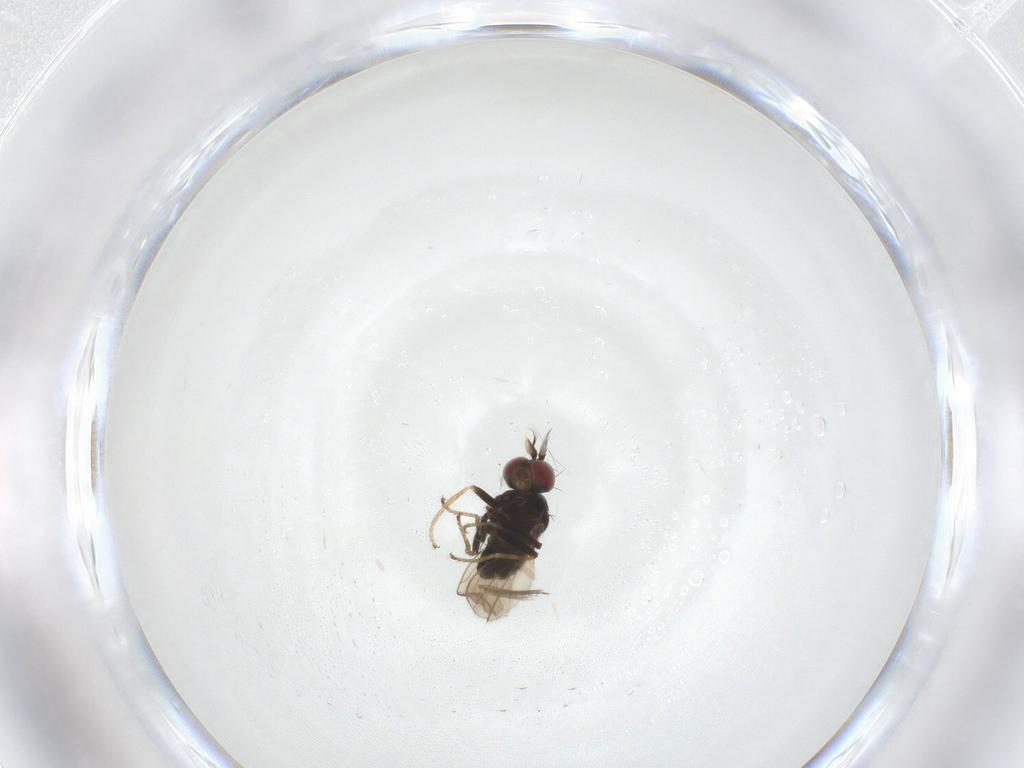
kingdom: Animalia
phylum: Arthropoda
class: Insecta
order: Diptera
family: Ephydridae
